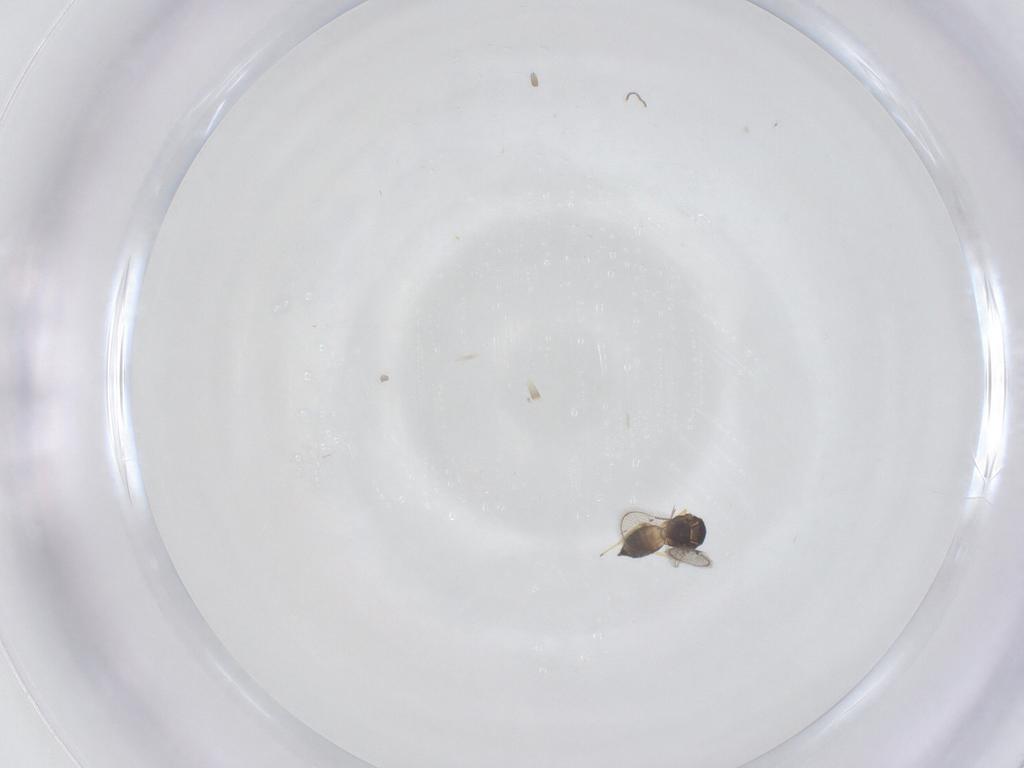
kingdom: Animalia
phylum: Arthropoda
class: Insecta
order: Hymenoptera
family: Eulophidae
